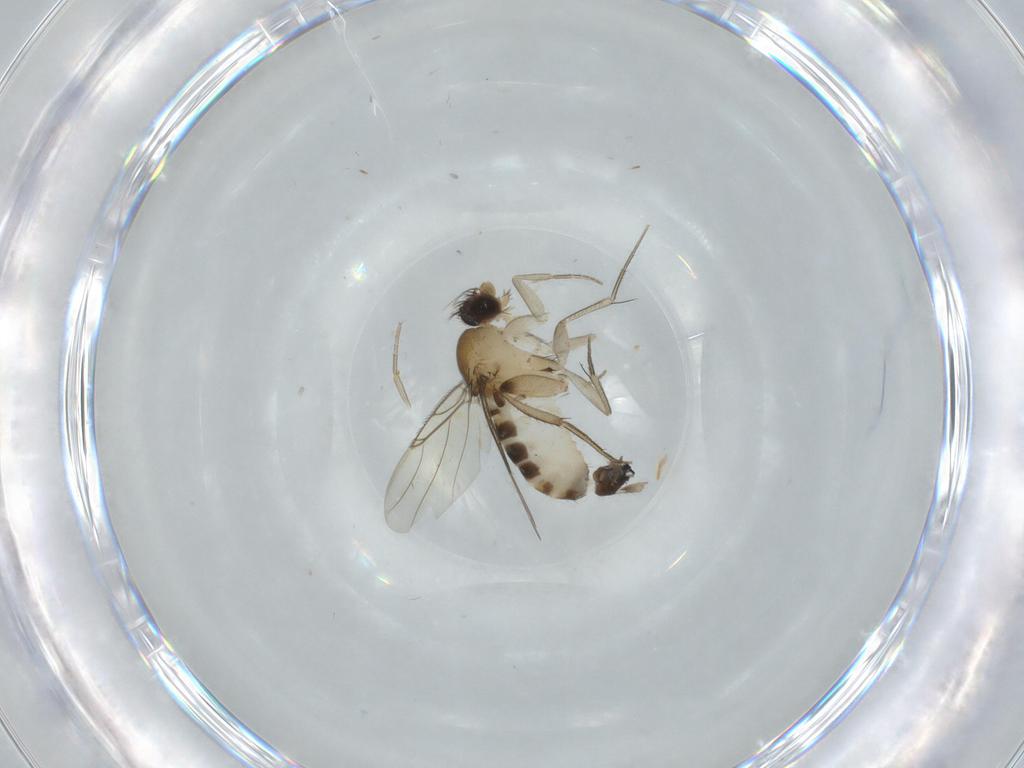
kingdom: Animalia
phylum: Arthropoda
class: Insecta
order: Diptera
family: Phoridae
